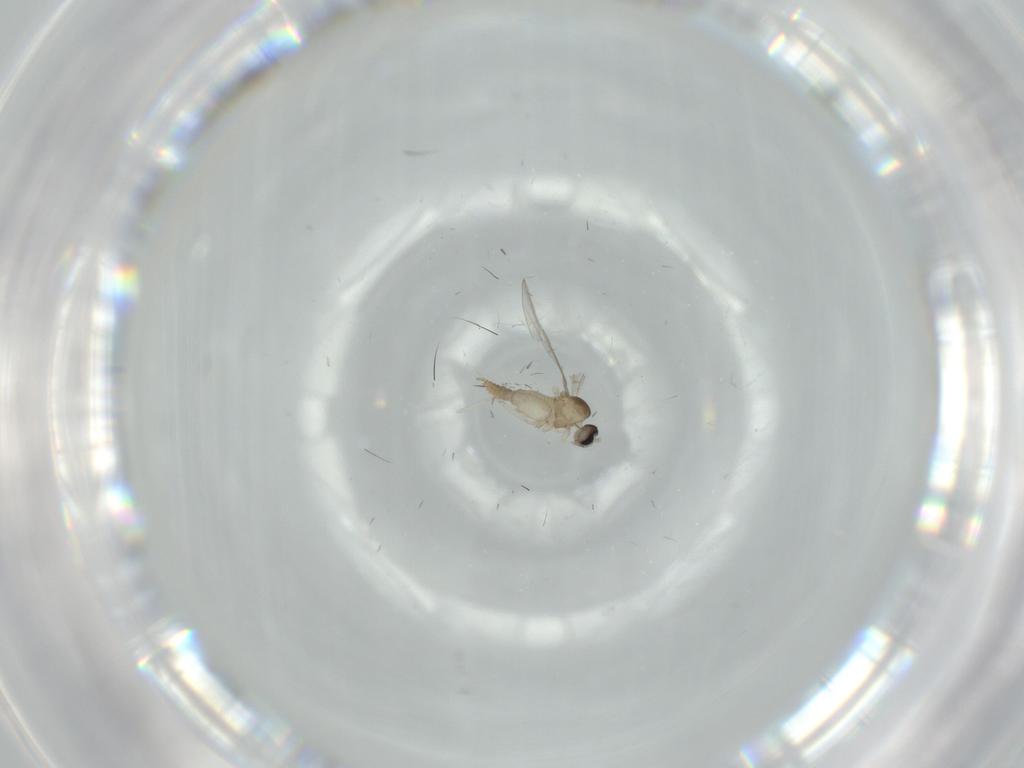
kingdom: Animalia
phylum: Arthropoda
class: Insecta
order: Diptera
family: Cecidomyiidae
